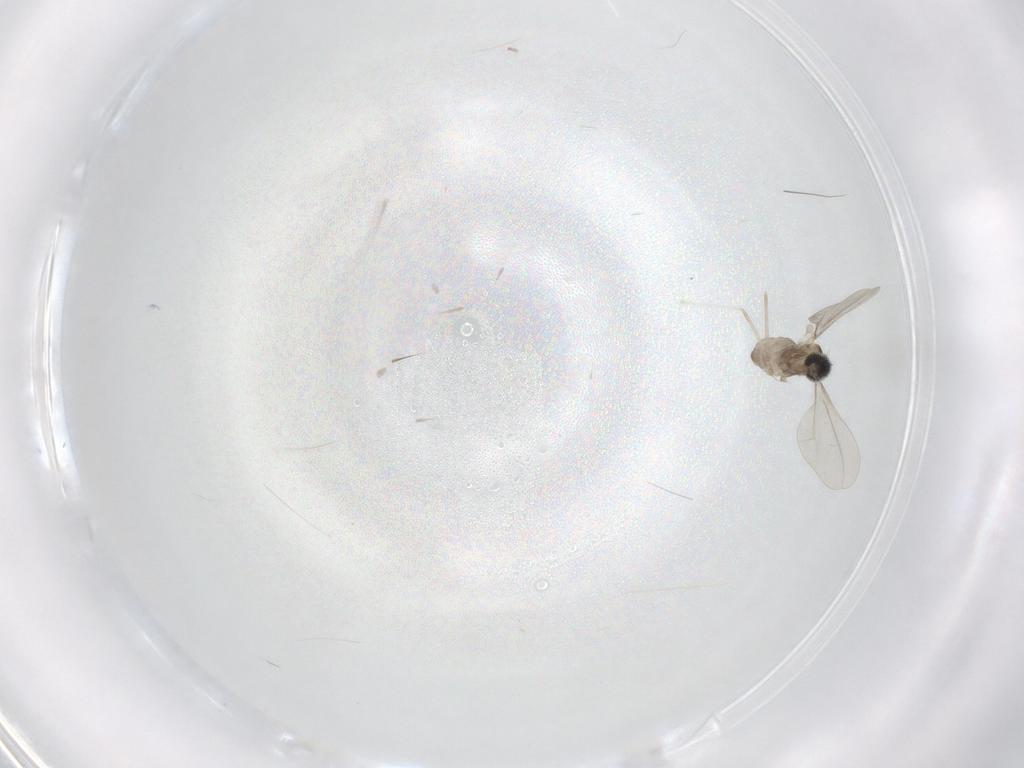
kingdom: Animalia
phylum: Arthropoda
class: Insecta
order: Diptera
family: Cecidomyiidae
